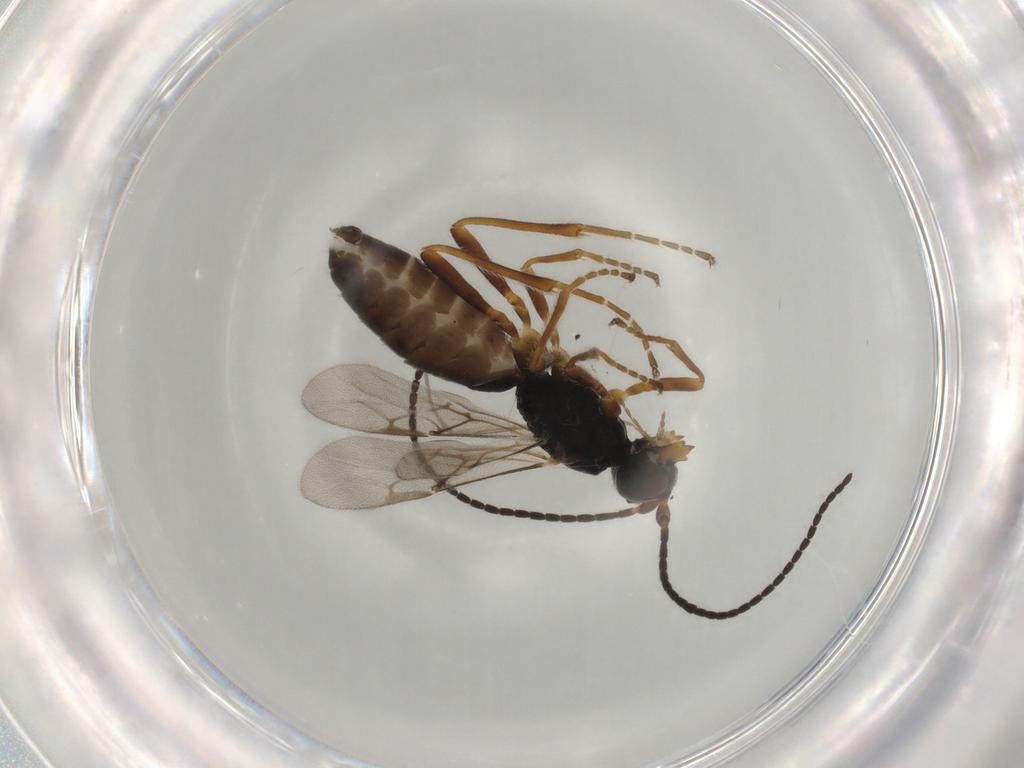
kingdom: Animalia
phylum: Arthropoda
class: Insecta
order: Hymenoptera
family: Braconidae
